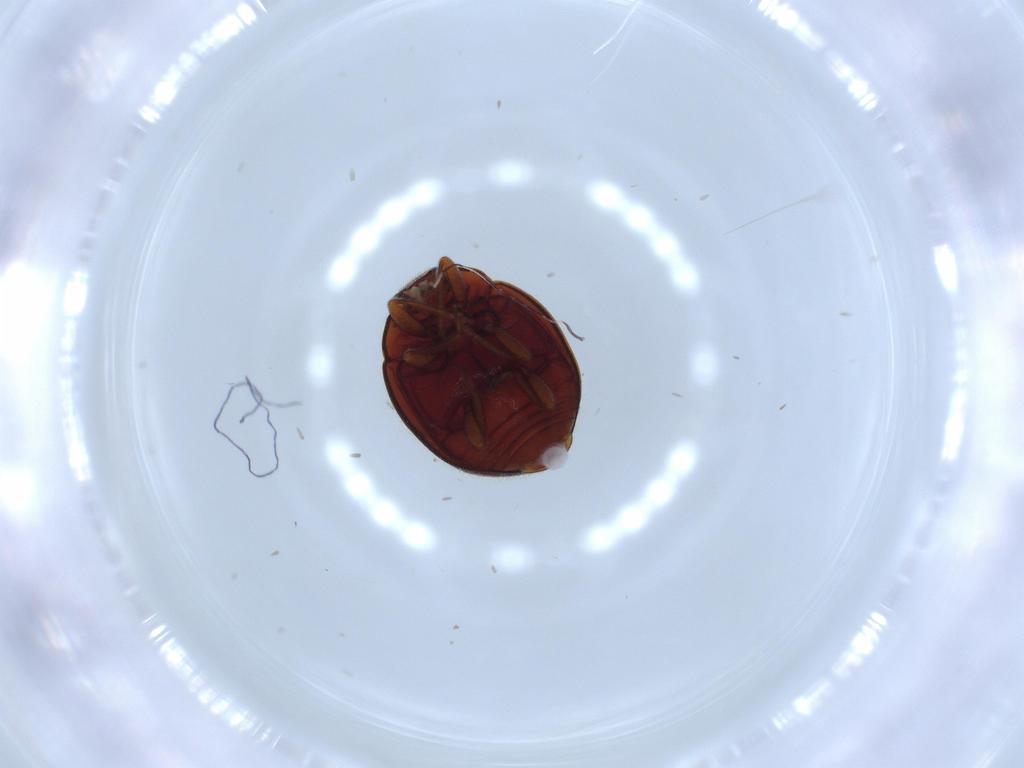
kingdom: Animalia
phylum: Arthropoda
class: Insecta
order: Coleoptera
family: Coccinellidae
